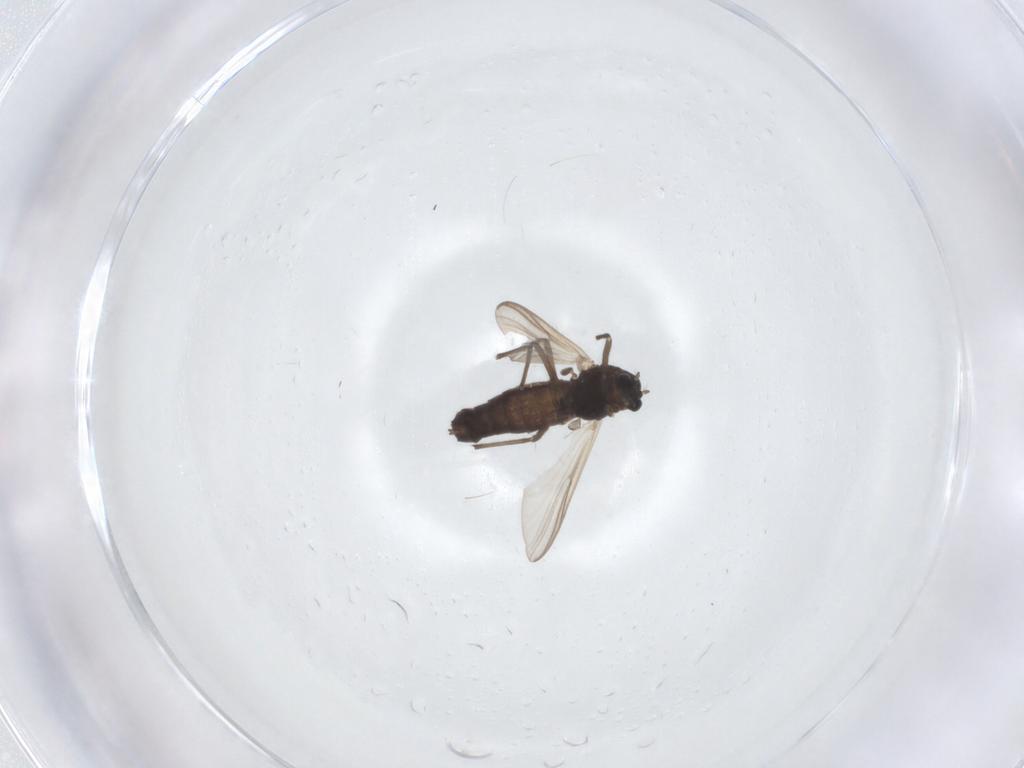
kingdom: Animalia
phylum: Arthropoda
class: Insecta
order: Diptera
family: Chironomidae
